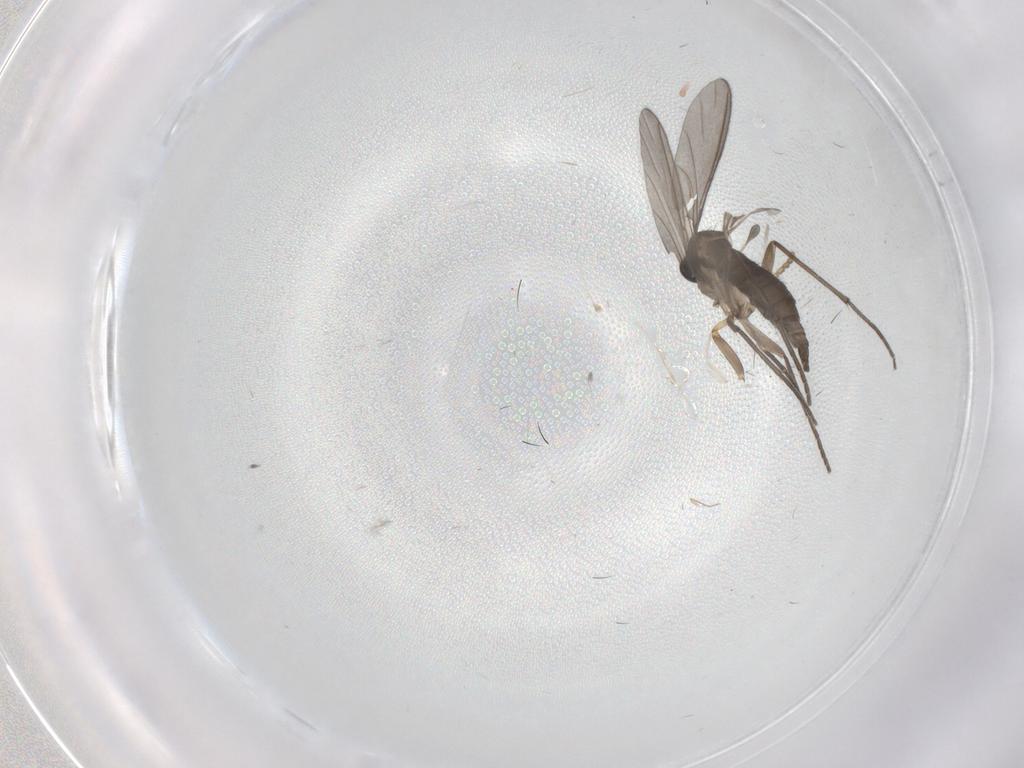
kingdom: Animalia
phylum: Arthropoda
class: Insecta
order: Diptera
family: Sciaridae
